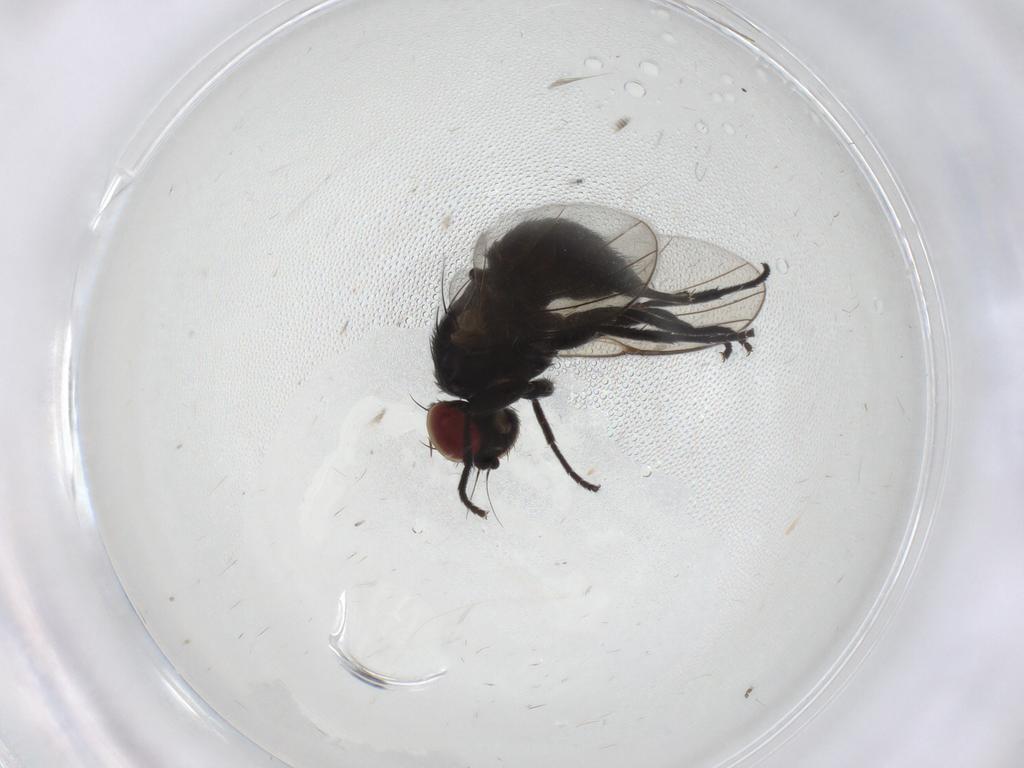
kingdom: Animalia
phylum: Arthropoda
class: Insecta
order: Diptera
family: Agromyzidae
